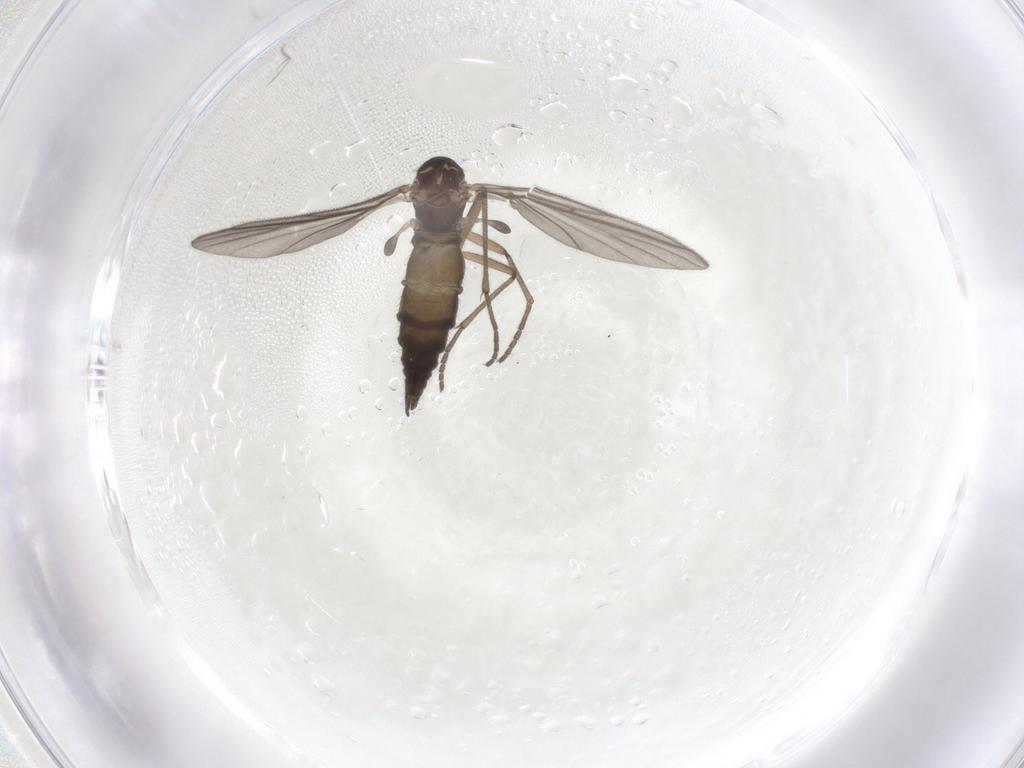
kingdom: Animalia
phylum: Arthropoda
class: Insecta
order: Diptera
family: Sciaridae
